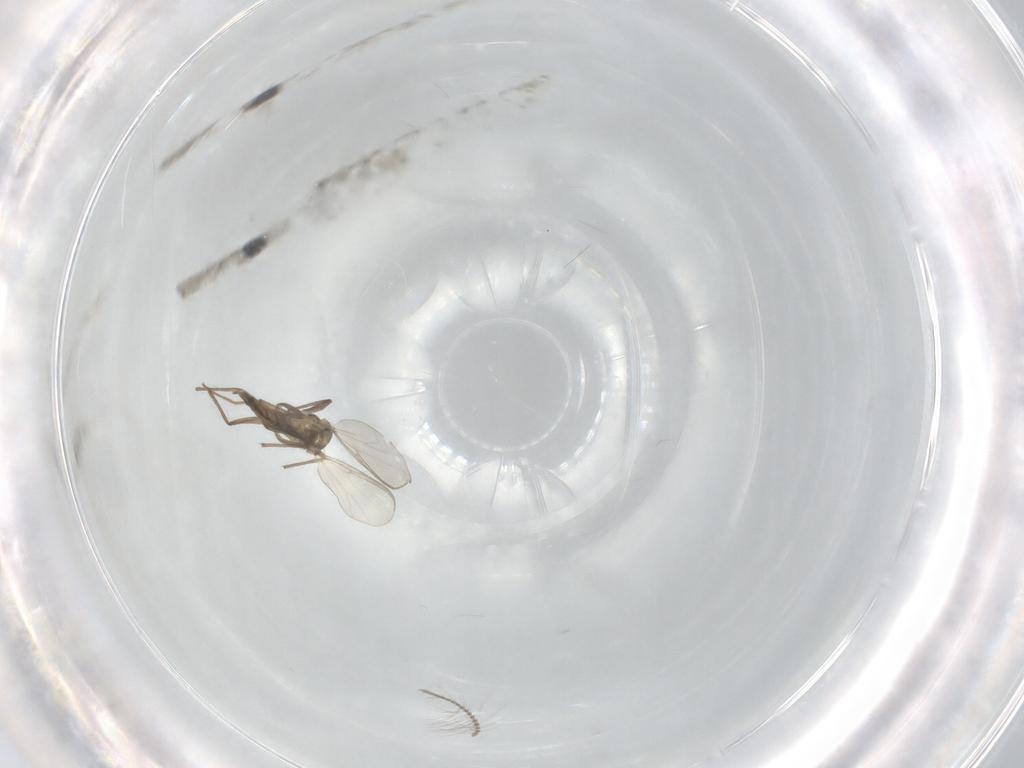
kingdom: Animalia
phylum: Arthropoda
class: Insecta
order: Diptera
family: Chironomidae
